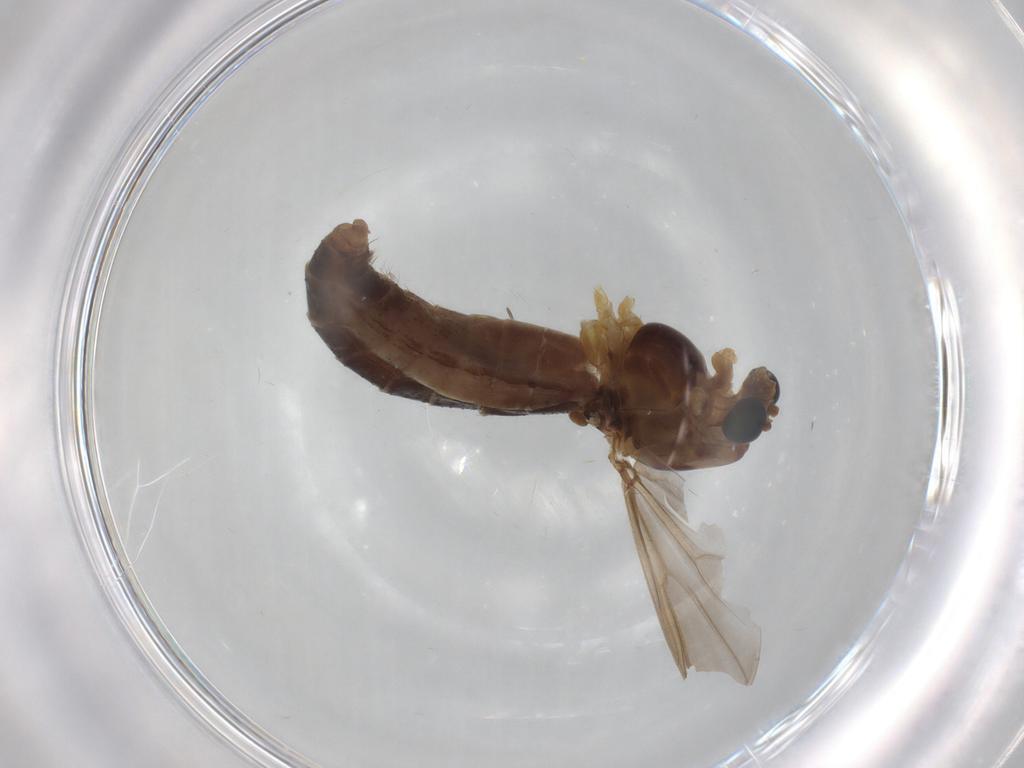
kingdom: Animalia
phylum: Arthropoda
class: Insecta
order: Diptera
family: Chironomidae
